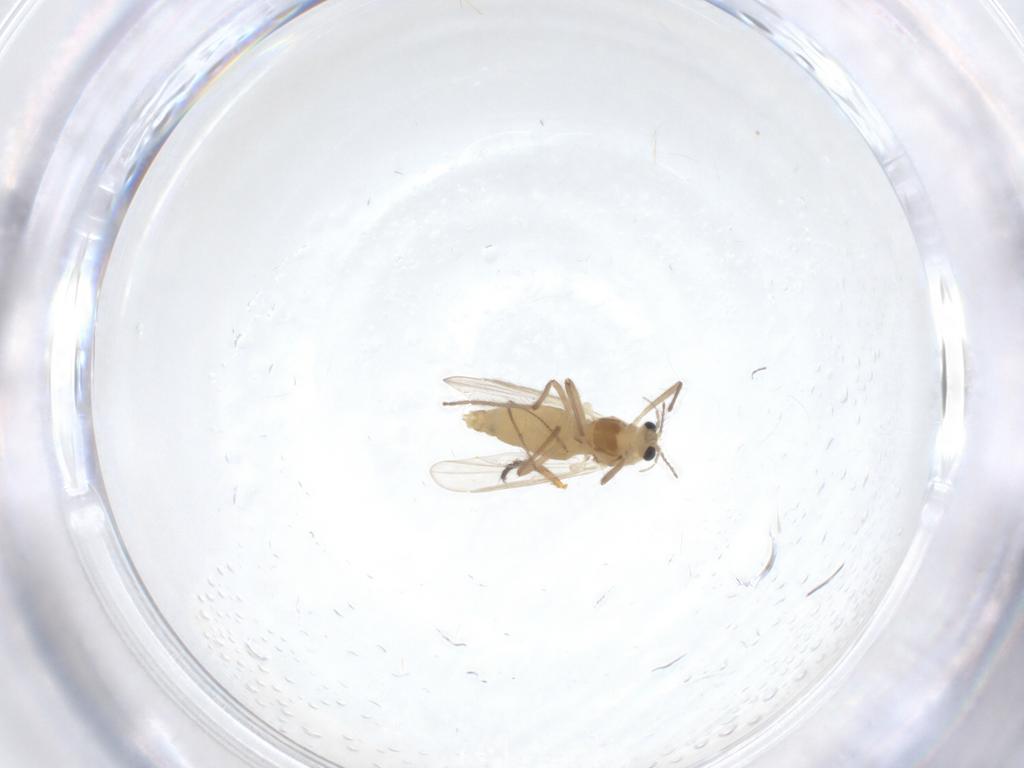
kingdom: Animalia
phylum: Arthropoda
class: Insecta
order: Diptera
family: Chironomidae
